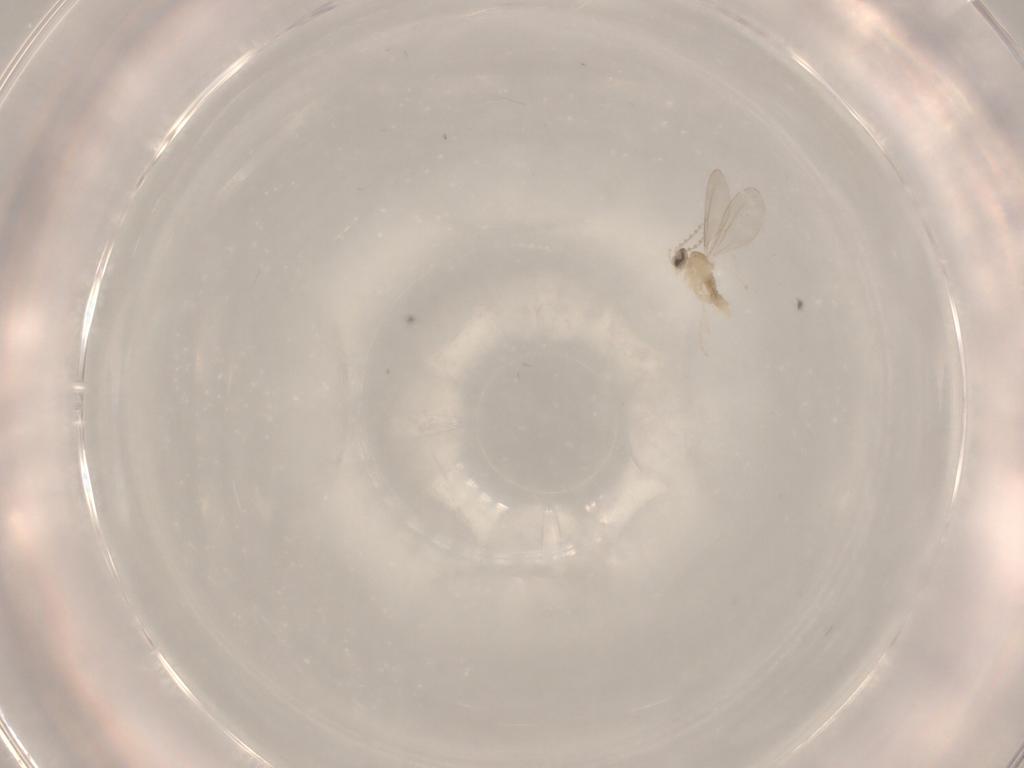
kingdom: Animalia
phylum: Arthropoda
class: Insecta
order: Diptera
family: Cecidomyiidae
